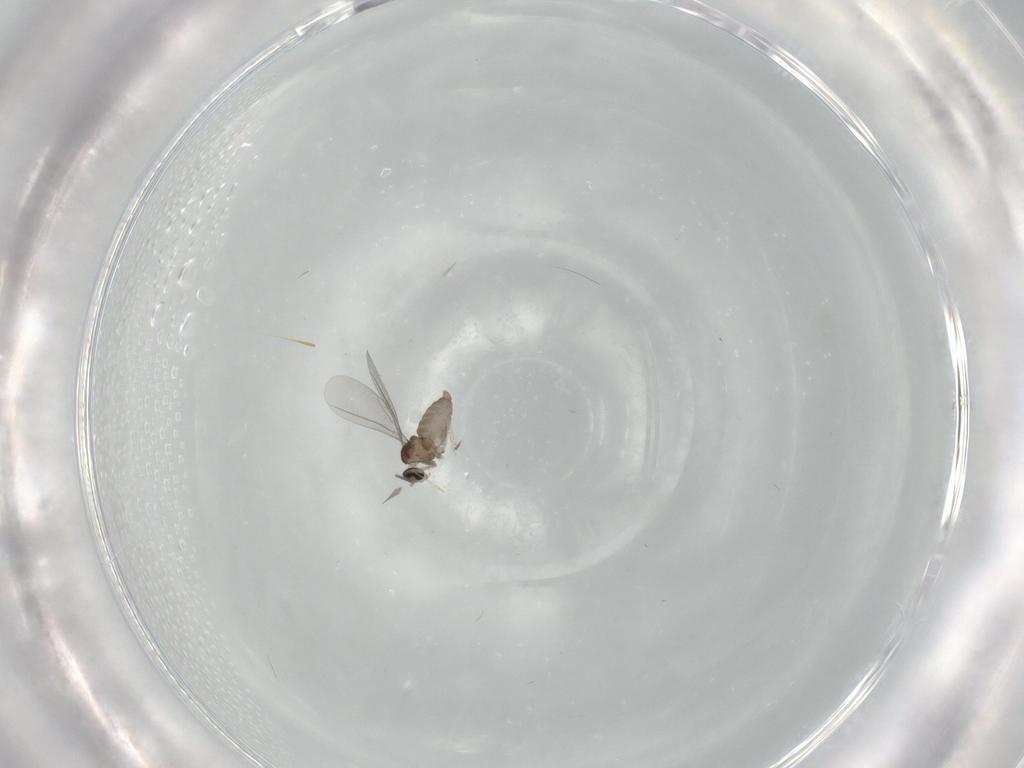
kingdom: Animalia
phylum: Arthropoda
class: Insecta
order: Diptera
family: Cecidomyiidae
